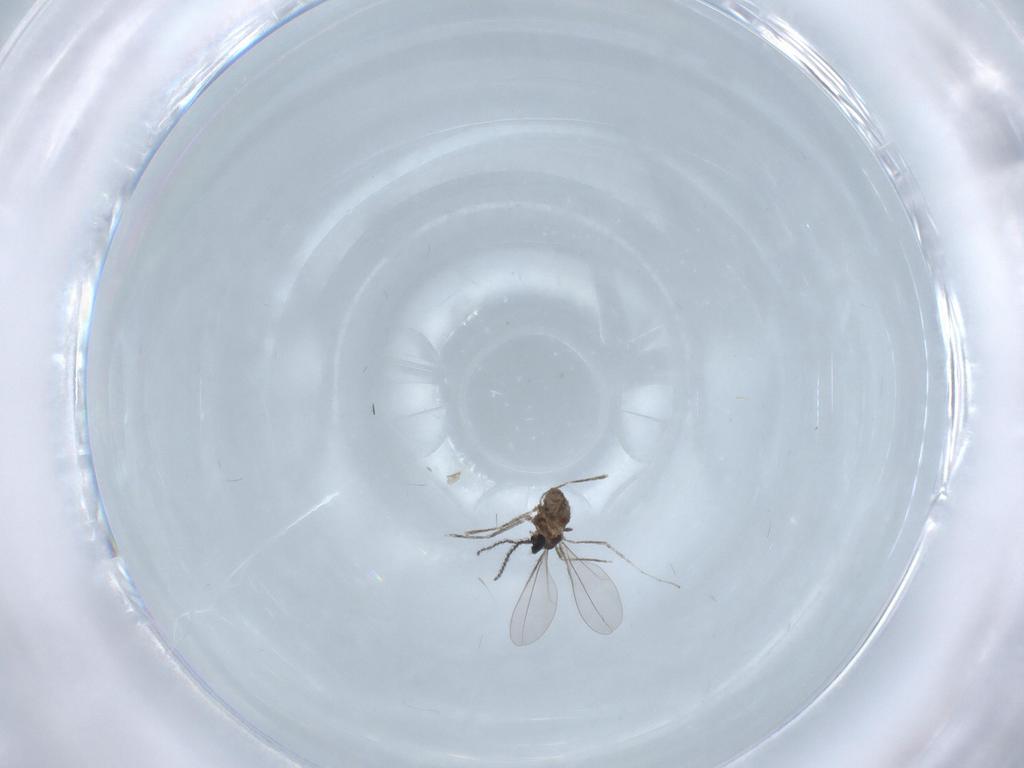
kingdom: Animalia
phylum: Arthropoda
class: Insecta
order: Diptera
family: Cecidomyiidae
